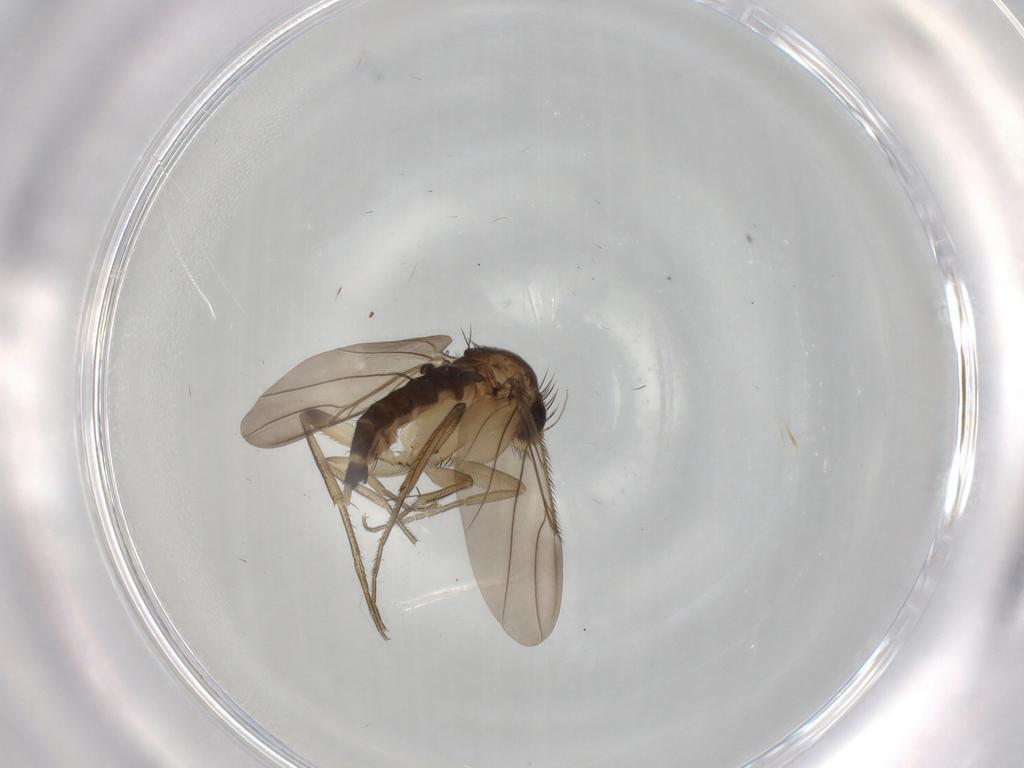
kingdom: Animalia
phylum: Arthropoda
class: Insecta
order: Diptera
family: Phoridae
